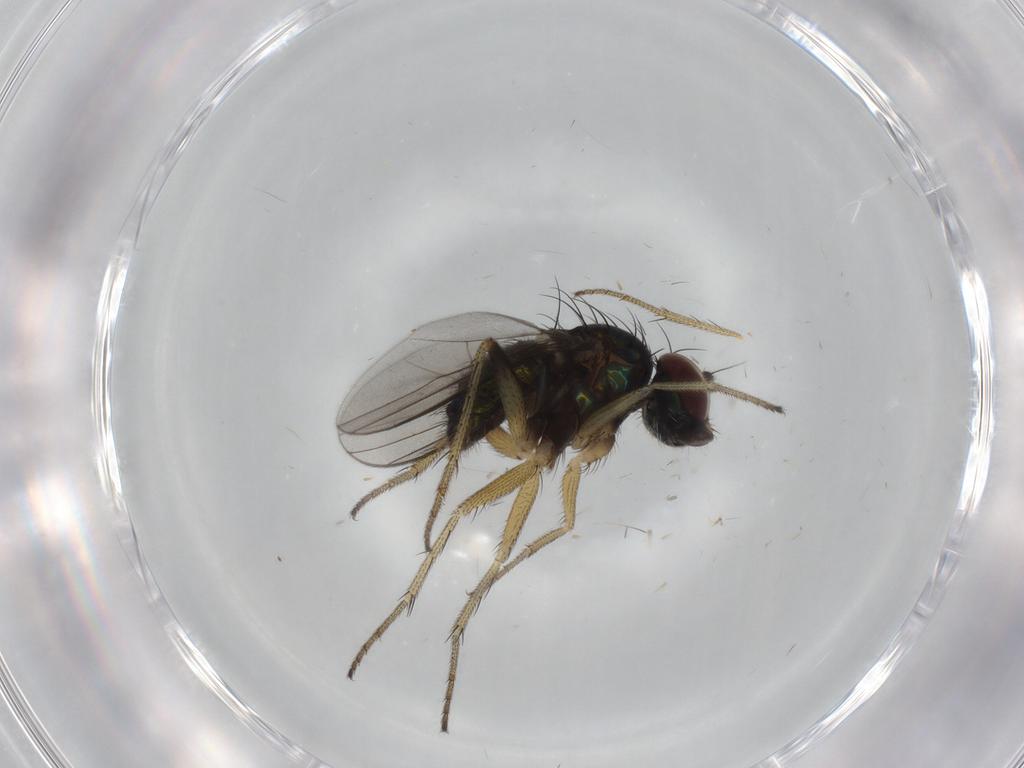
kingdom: Animalia
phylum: Arthropoda
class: Insecta
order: Diptera
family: Dolichopodidae
